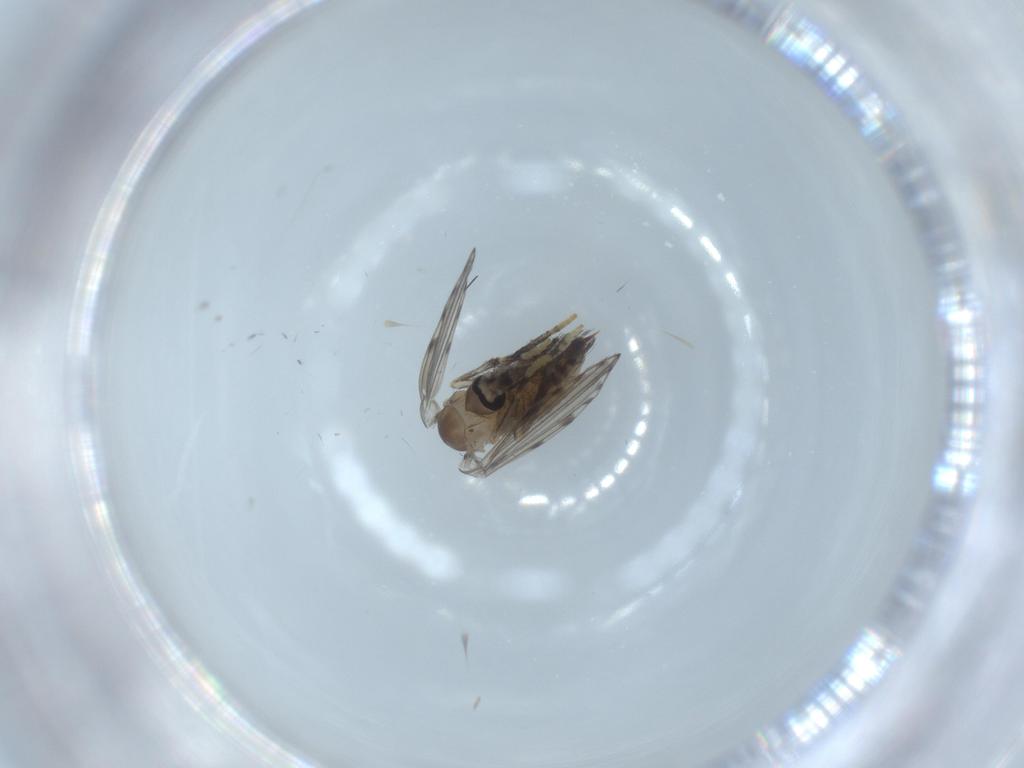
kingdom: Animalia
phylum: Arthropoda
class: Insecta
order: Diptera
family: Psychodidae
